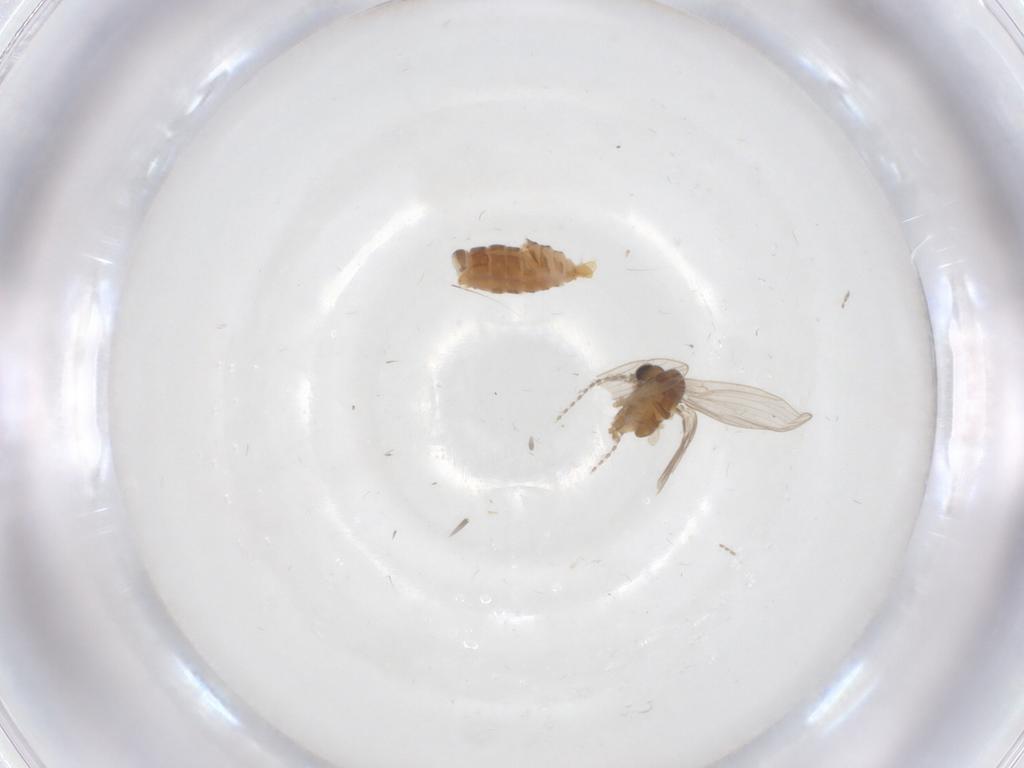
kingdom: Animalia
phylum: Arthropoda
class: Insecta
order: Diptera
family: Psychodidae
